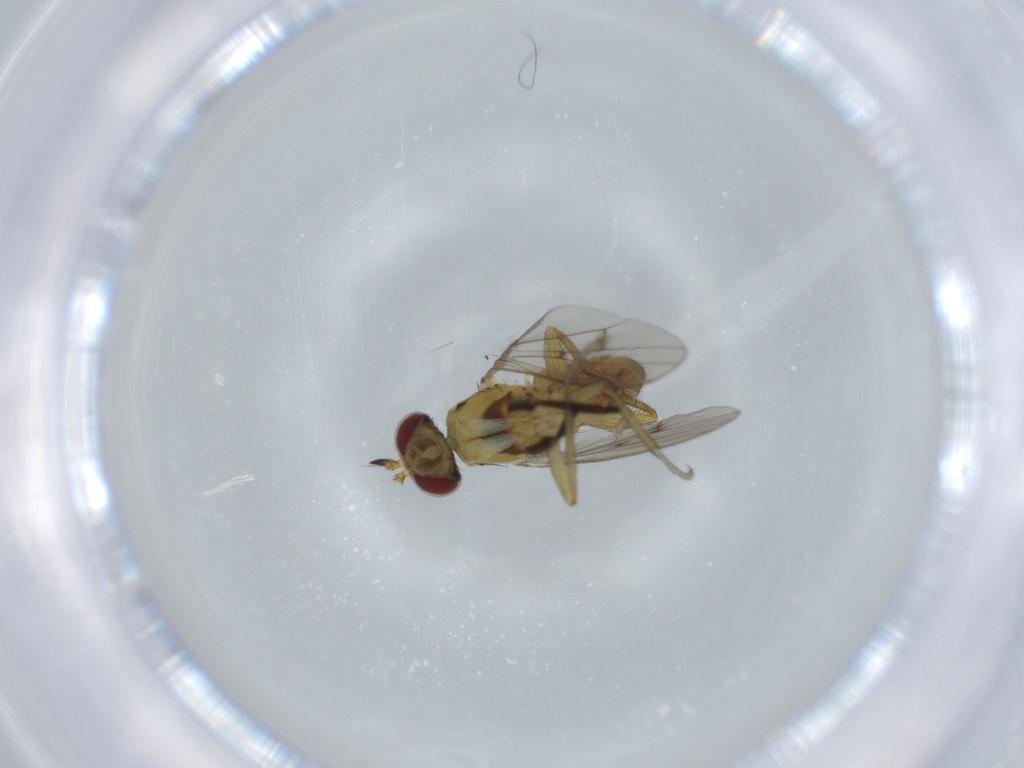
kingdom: Animalia
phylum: Arthropoda
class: Insecta
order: Diptera
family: Sciomyzidae
